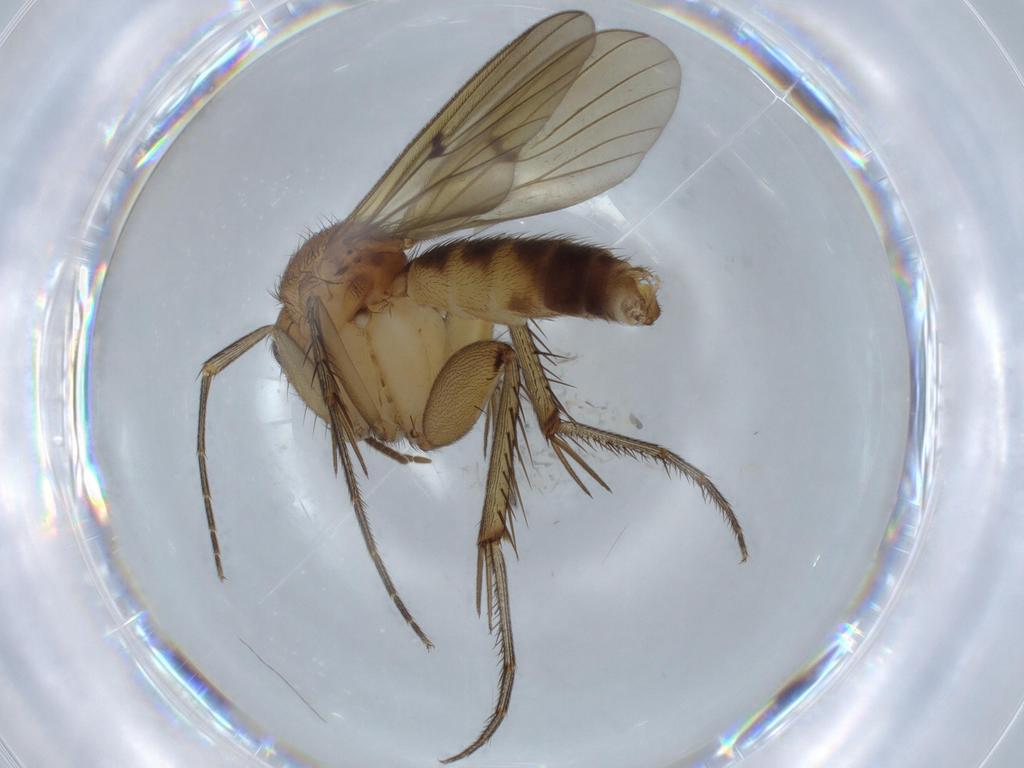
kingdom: Animalia
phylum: Arthropoda
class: Insecta
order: Diptera
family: Mycetophilidae
